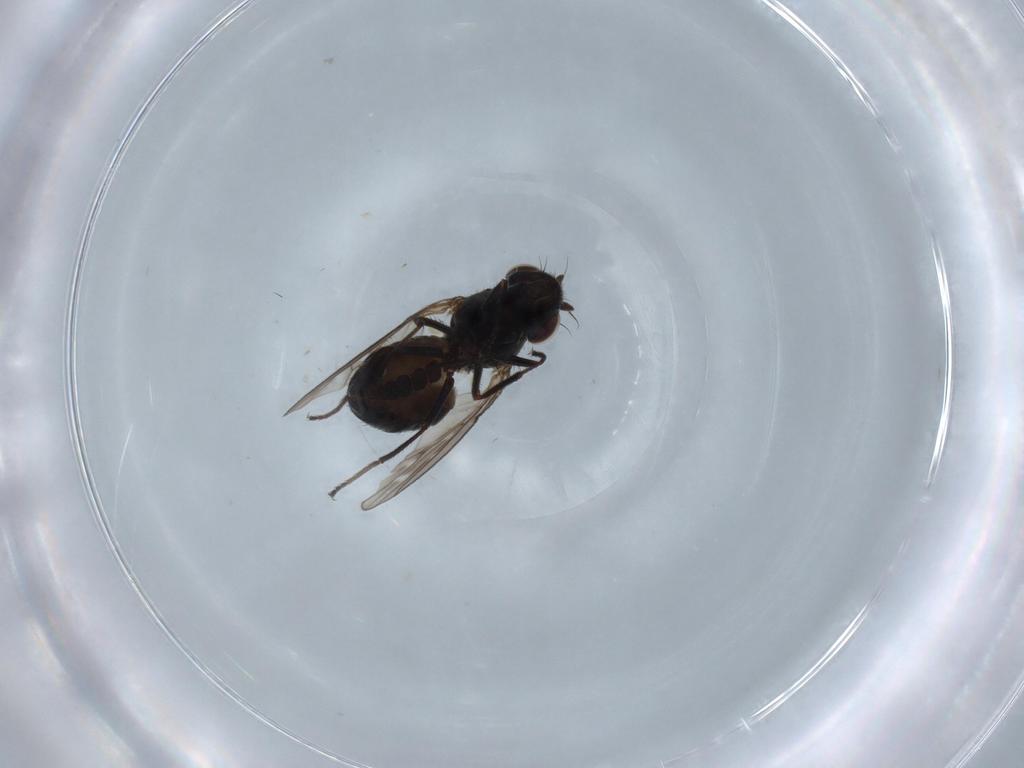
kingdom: Animalia
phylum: Arthropoda
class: Insecta
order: Diptera
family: Ephydridae
